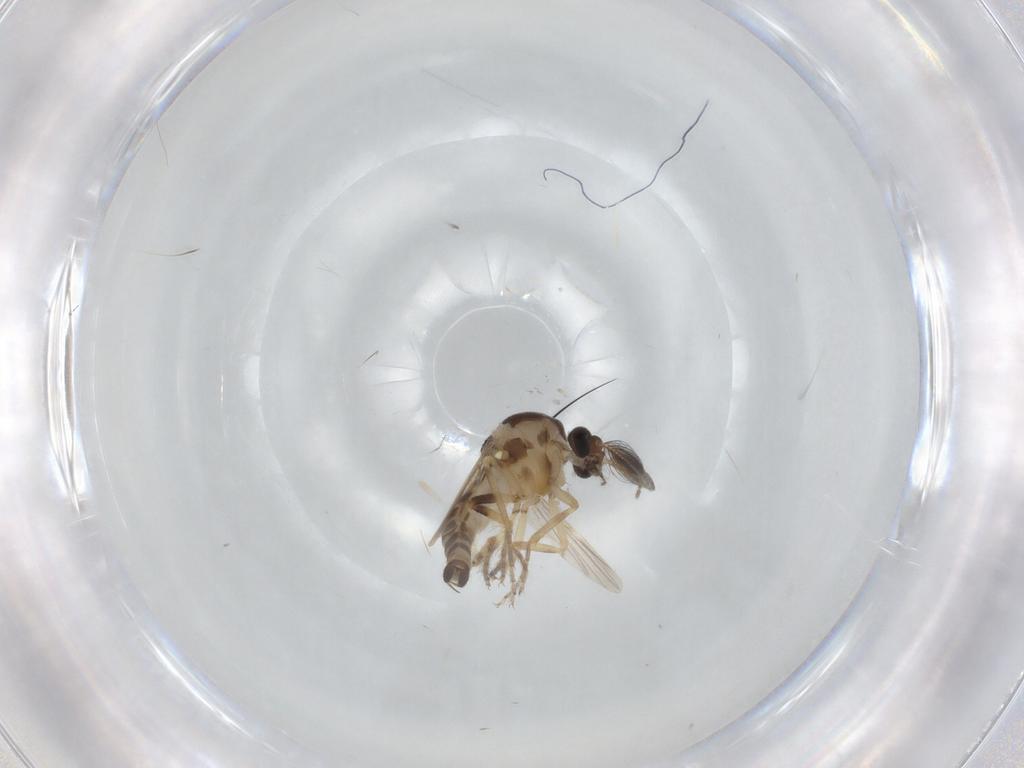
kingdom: Animalia
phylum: Arthropoda
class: Insecta
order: Diptera
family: Ceratopogonidae
